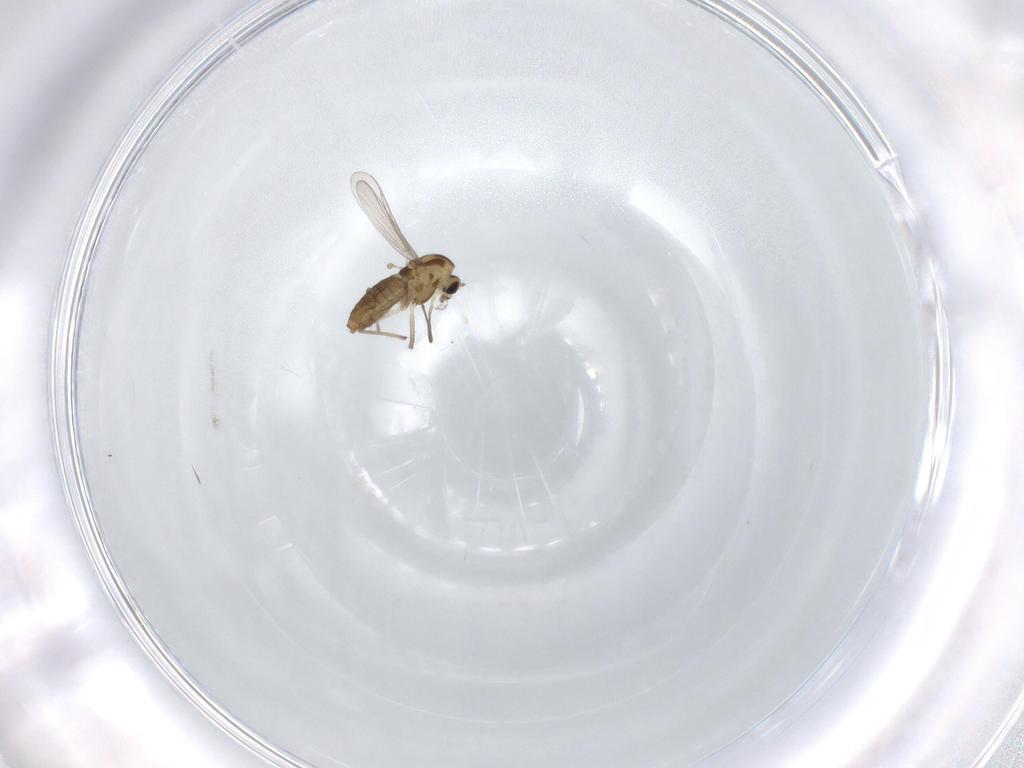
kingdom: Animalia
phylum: Arthropoda
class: Insecta
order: Diptera
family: Chironomidae
